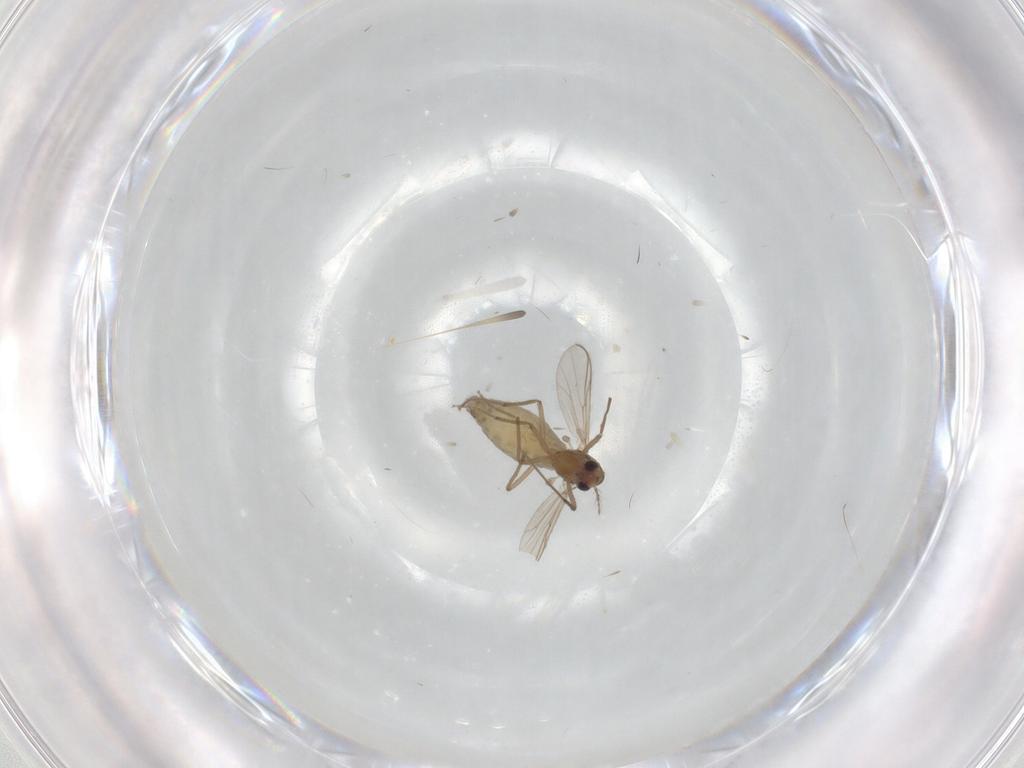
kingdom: Animalia
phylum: Arthropoda
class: Insecta
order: Diptera
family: Chironomidae
